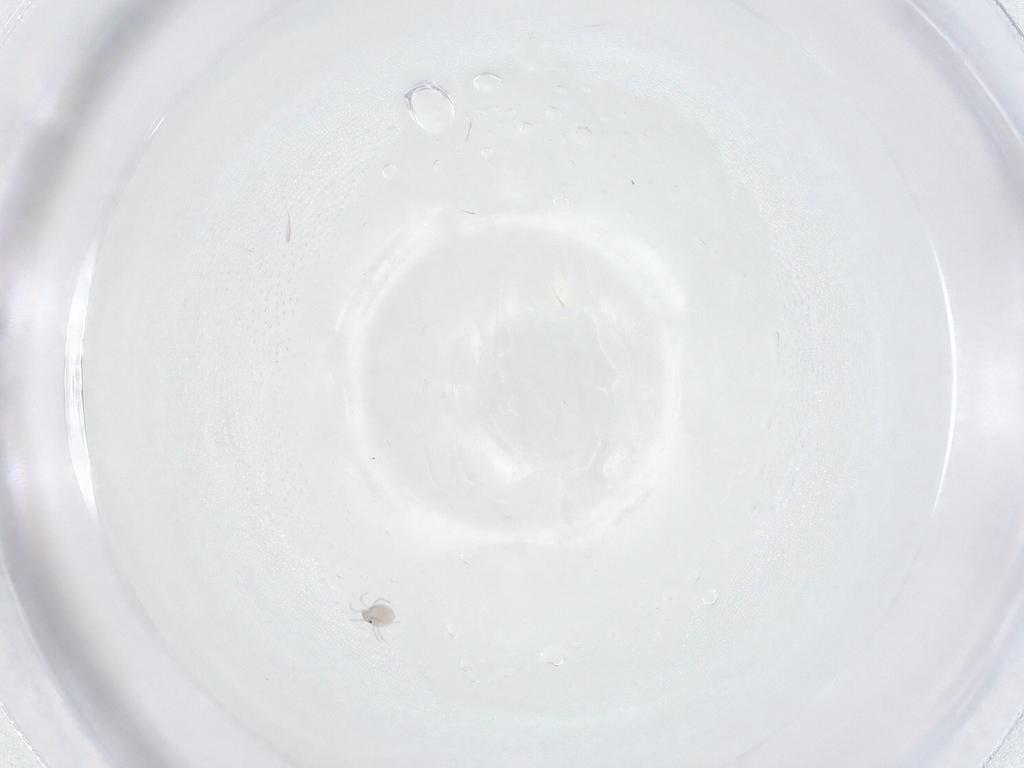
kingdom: Animalia
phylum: Arthropoda
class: Arachnida
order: Trombidiformes
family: Pionidae
